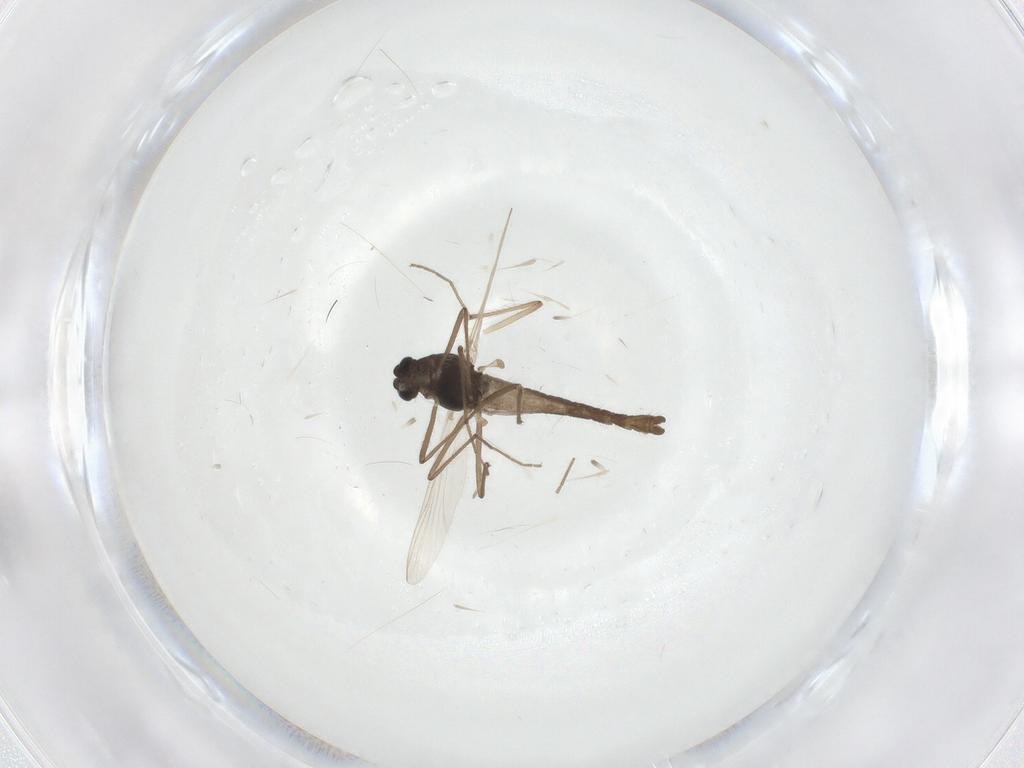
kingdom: Animalia
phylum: Arthropoda
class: Insecta
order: Diptera
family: Chironomidae
